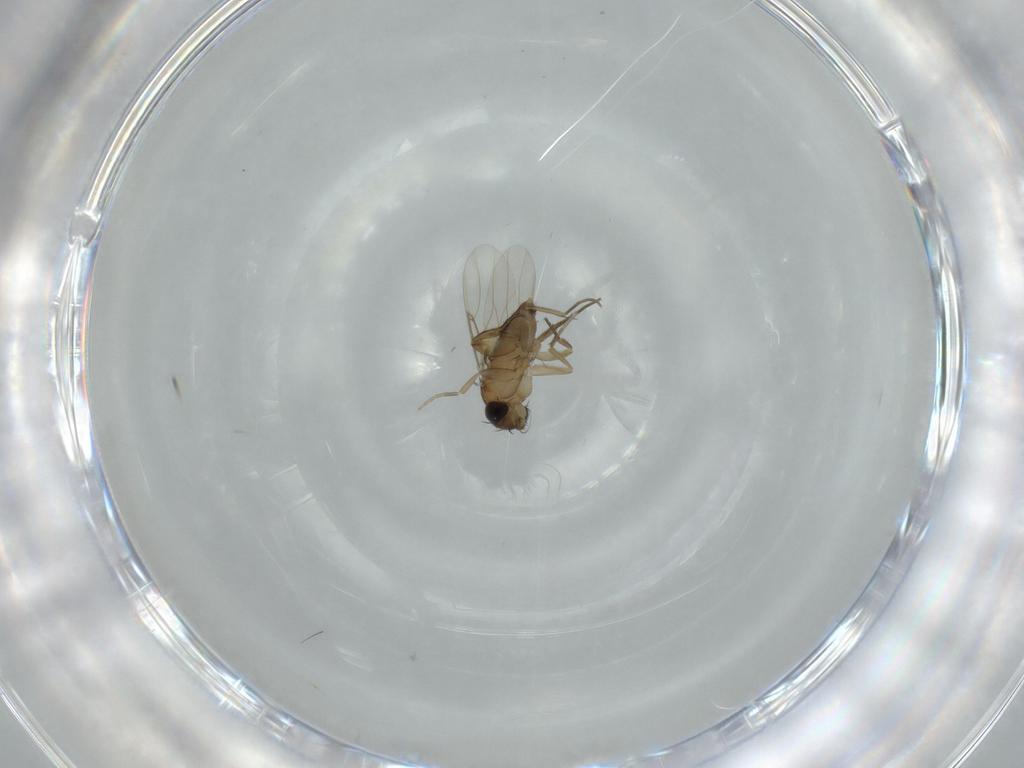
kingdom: Animalia
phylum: Arthropoda
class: Insecta
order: Diptera
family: Phoridae
